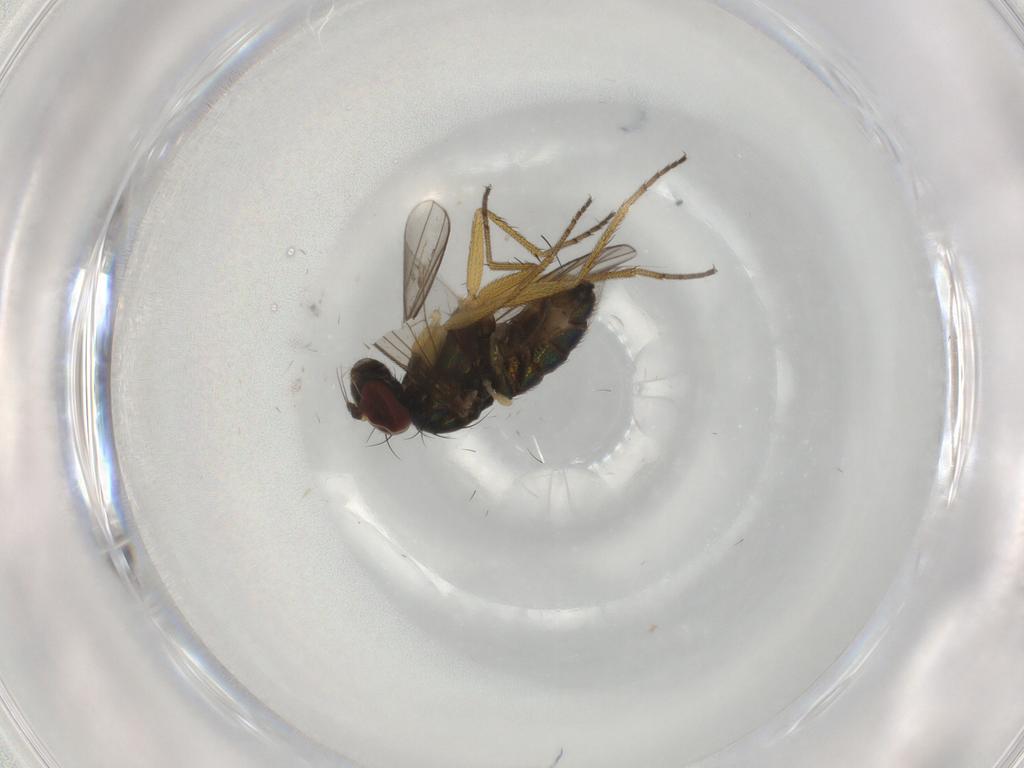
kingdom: Animalia
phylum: Arthropoda
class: Insecta
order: Diptera
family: Dolichopodidae
